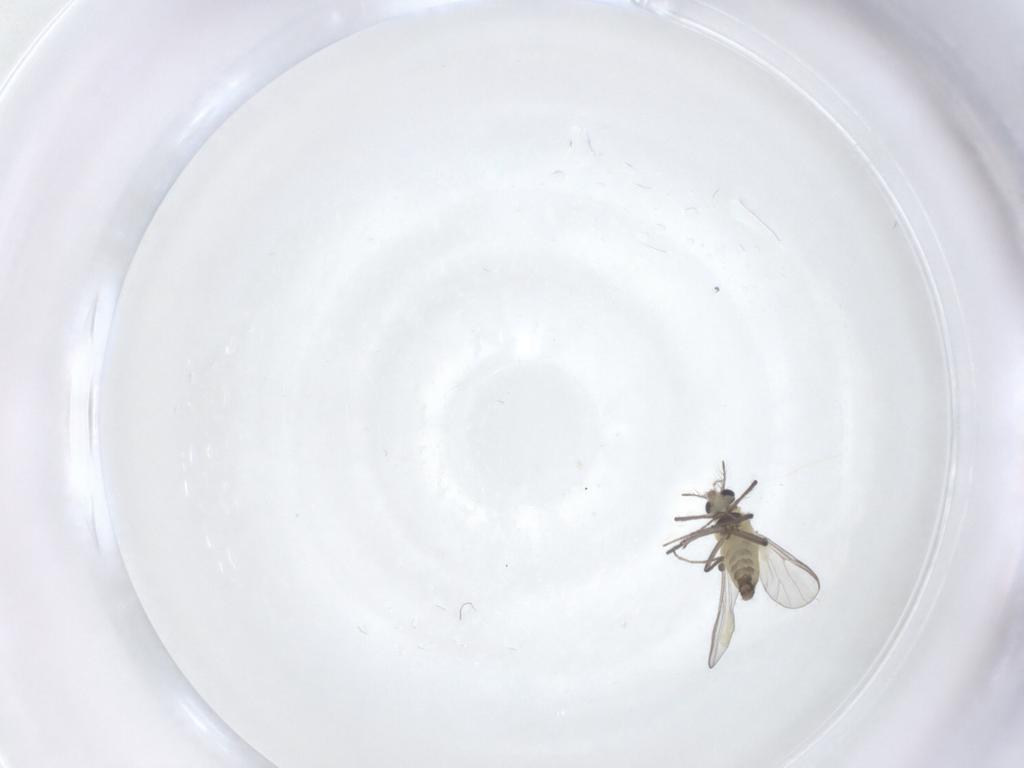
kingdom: Animalia
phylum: Arthropoda
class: Insecta
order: Diptera
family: Chironomidae
